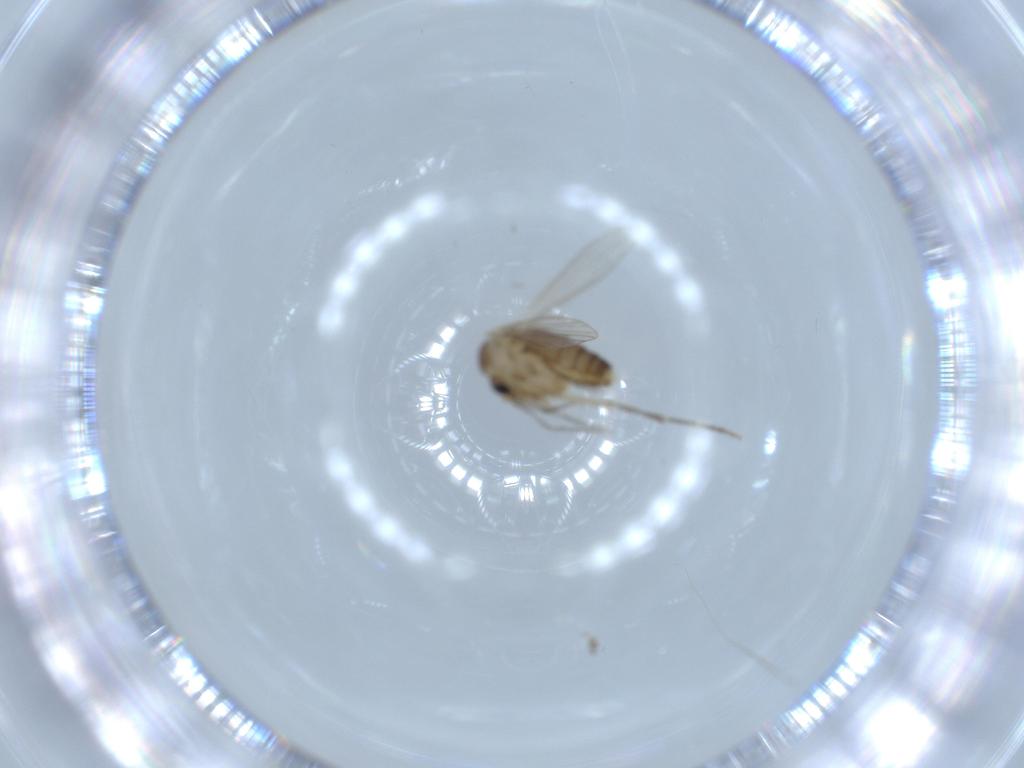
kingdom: Animalia
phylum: Arthropoda
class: Insecta
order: Diptera
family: Psychodidae
